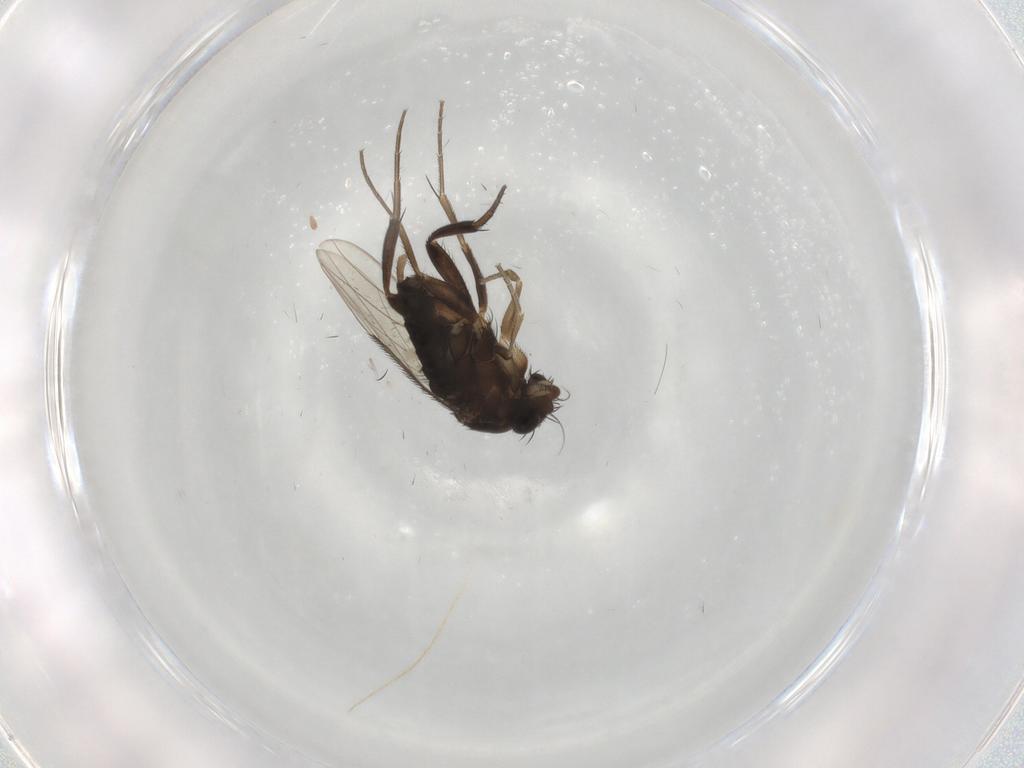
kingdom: Animalia
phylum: Arthropoda
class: Insecta
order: Diptera
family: Phoridae
